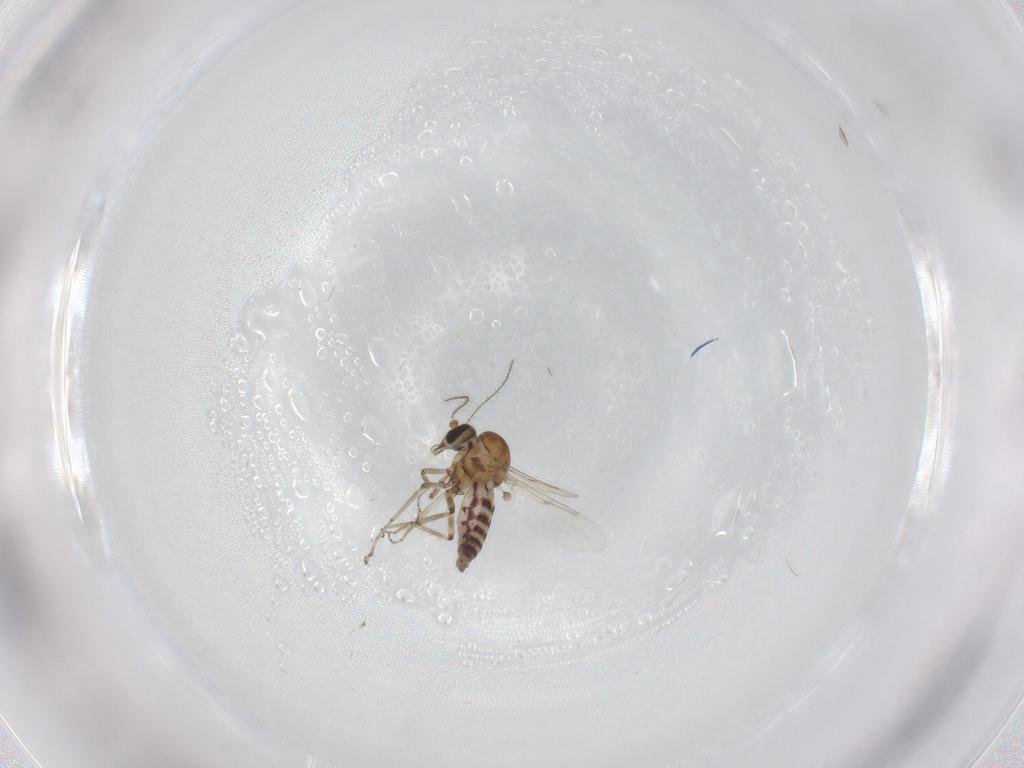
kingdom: Animalia
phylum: Arthropoda
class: Insecta
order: Diptera
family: Ceratopogonidae
